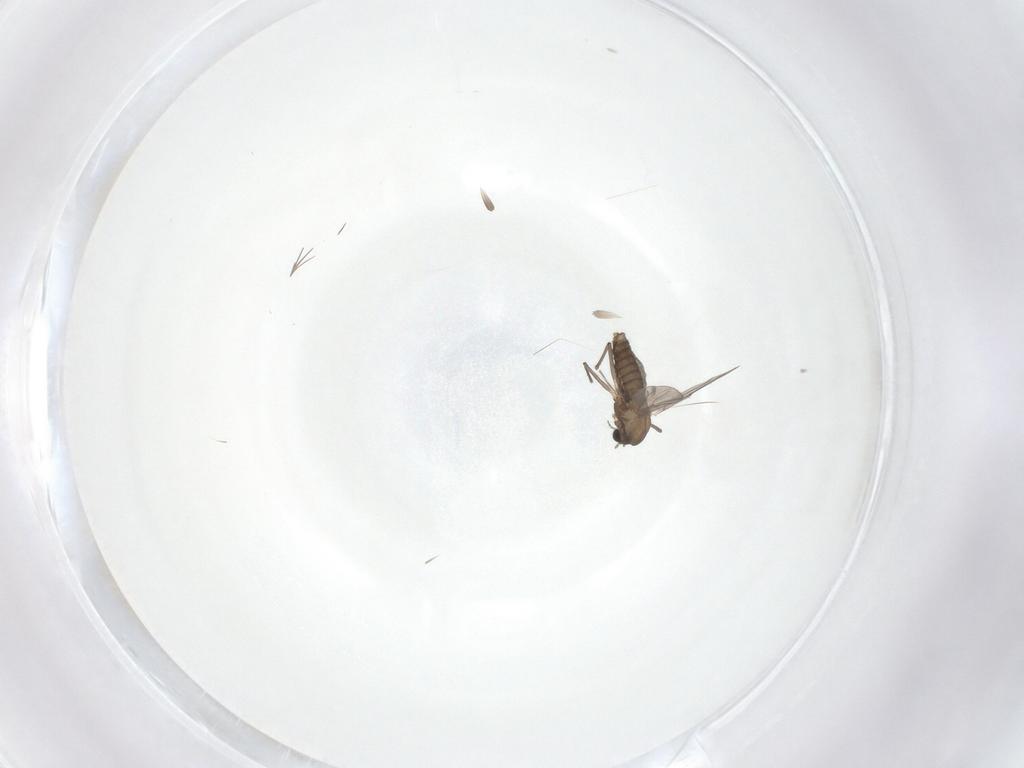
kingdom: Animalia
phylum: Arthropoda
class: Insecta
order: Diptera
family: Chironomidae
